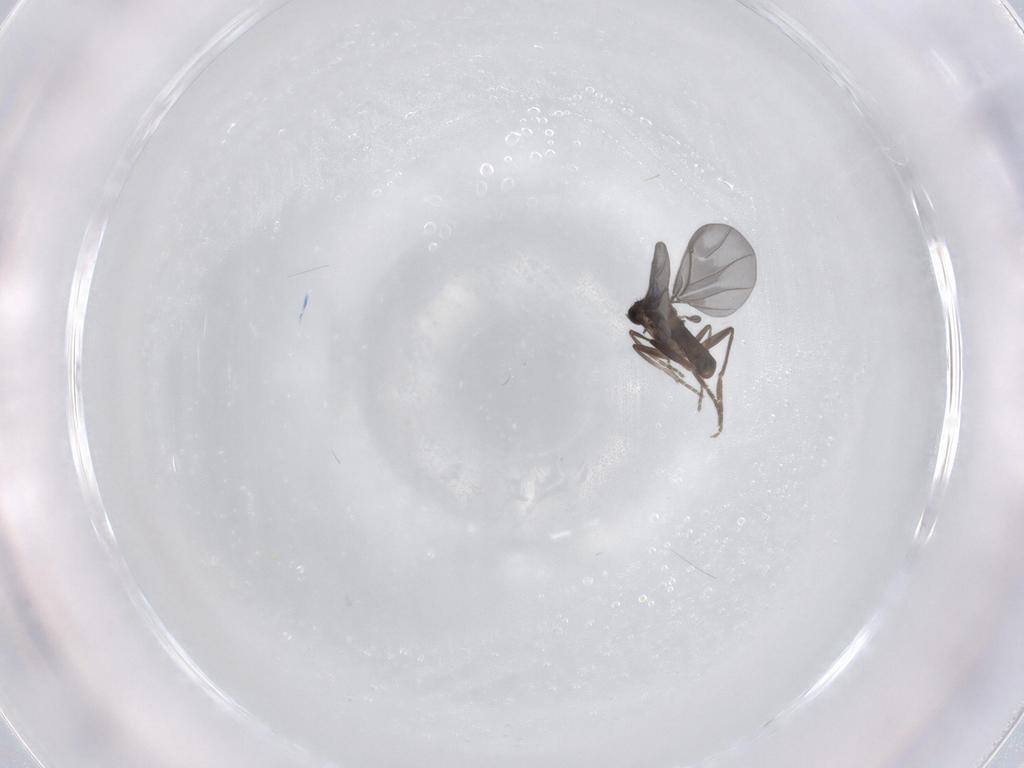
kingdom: Animalia
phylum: Arthropoda
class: Insecta
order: Diptera
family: Phoridae
